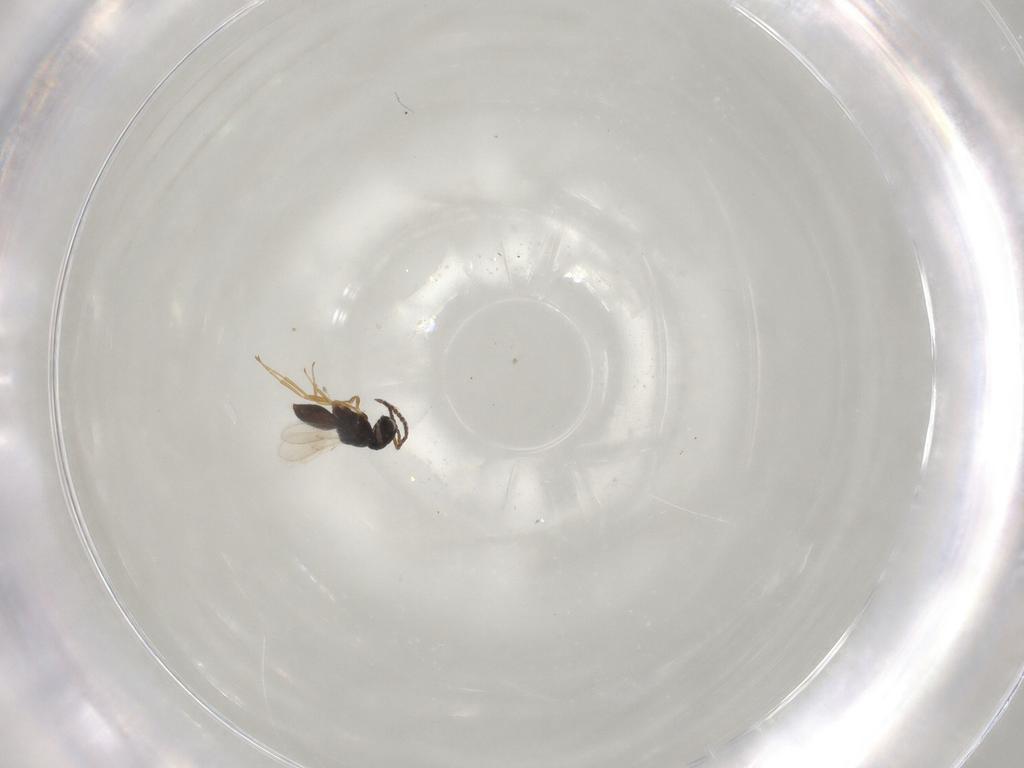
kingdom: Animalia
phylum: Arthropoda
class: Insecta
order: Hymenoptera
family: Scelionidae
